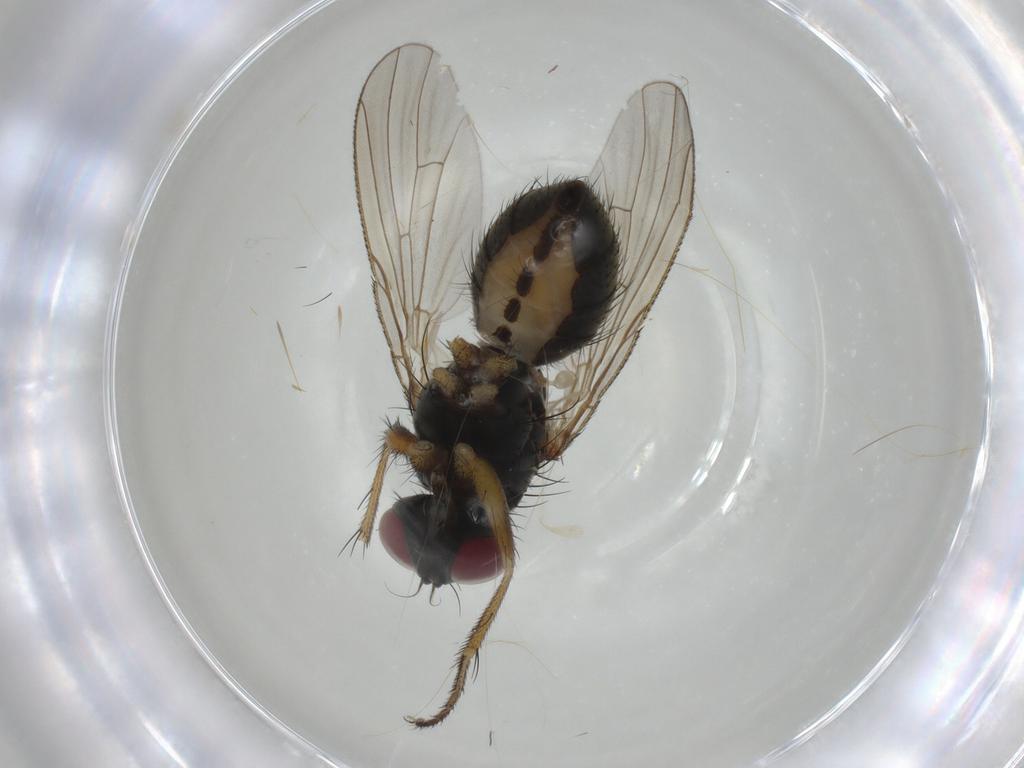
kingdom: Animalia
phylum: Arthropoda
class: Insecta
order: Diptera
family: Muscidae
